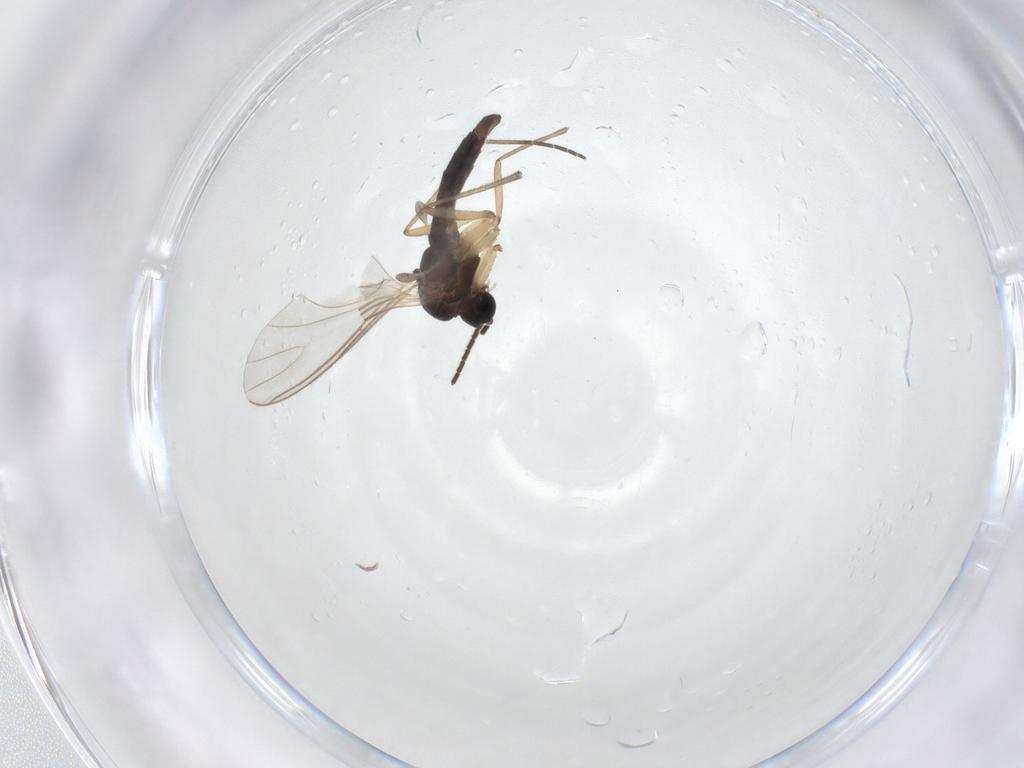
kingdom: Animalia
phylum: Arthropoda
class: Insecta
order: Diptera
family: Sciaridae
